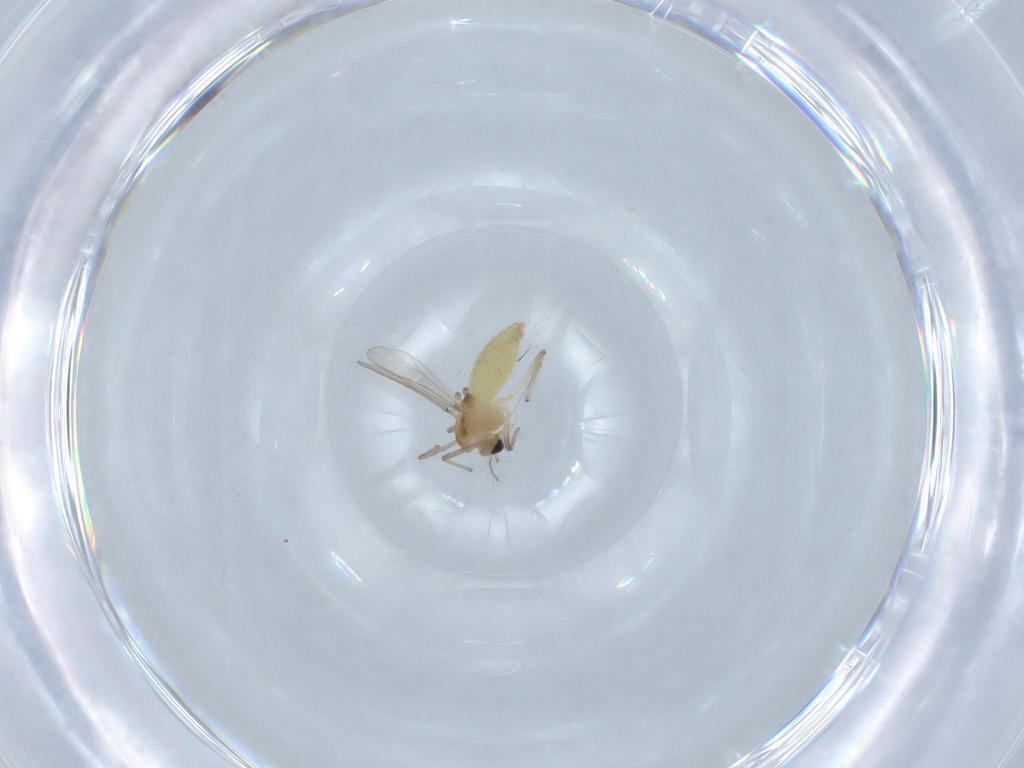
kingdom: Animalia
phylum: Arthropoda
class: Insecta
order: Diptera
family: Chironomidae
